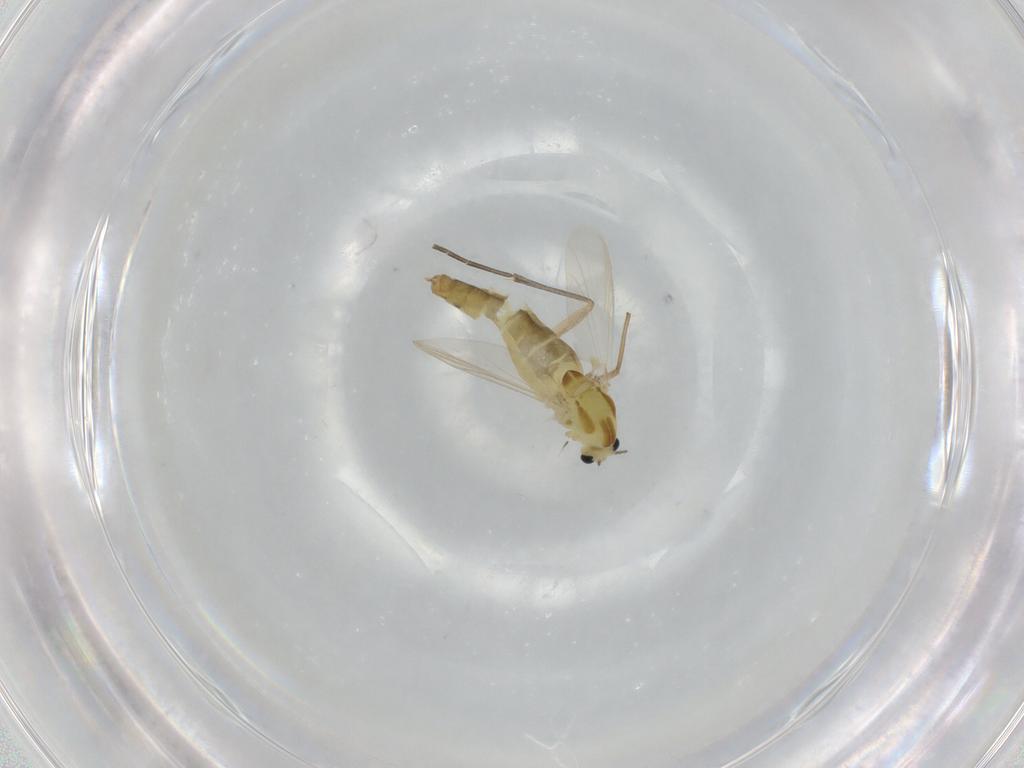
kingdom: Animalia
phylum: Arthropoda
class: Insecta
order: Diptera
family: Chironomidae
